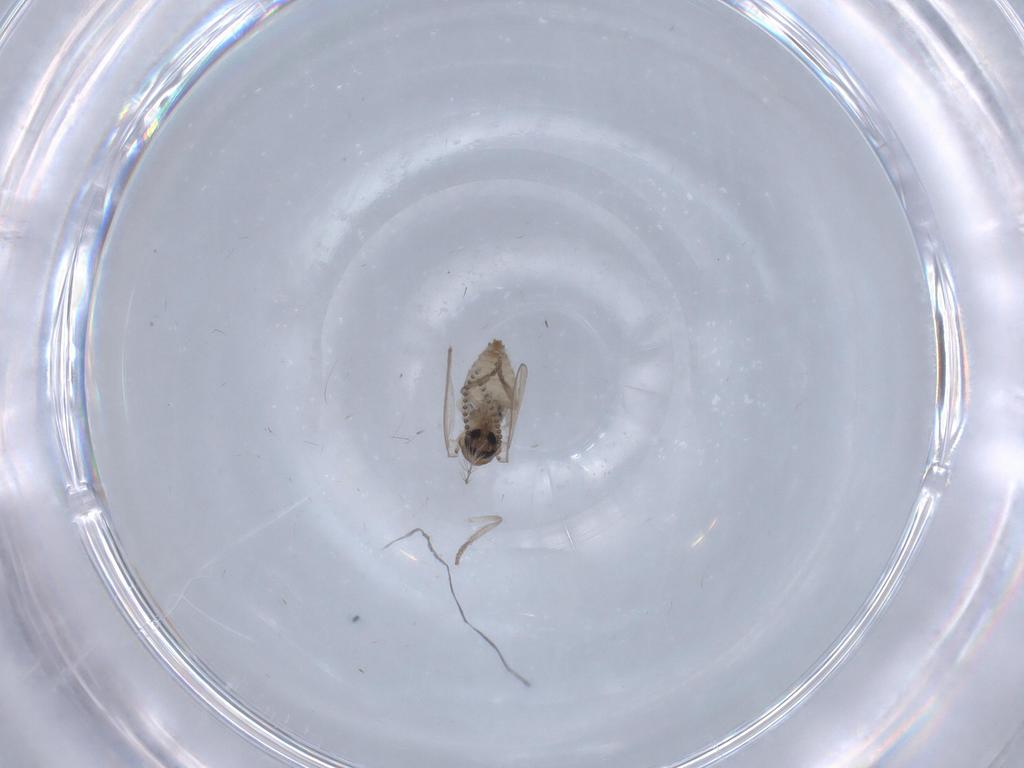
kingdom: Animalia
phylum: Arthropoda
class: Insecta
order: Diptera
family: Psychodidae
